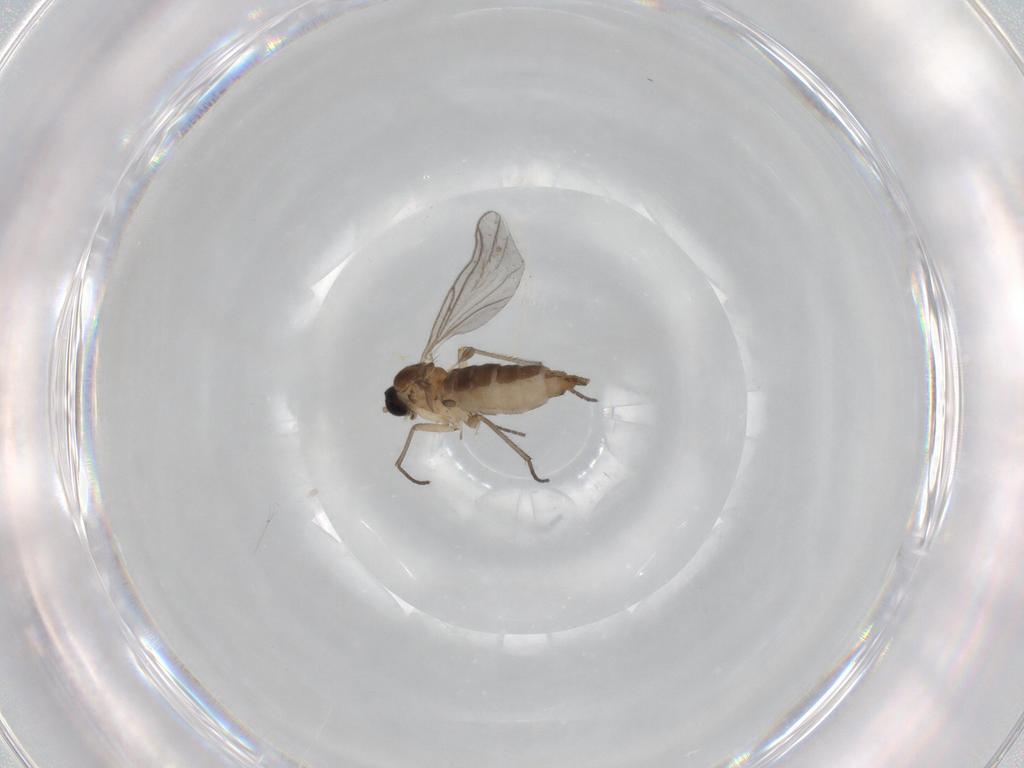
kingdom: Animalia
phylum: Arthropoda
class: Insecta
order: Diptera
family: Sciaridae
